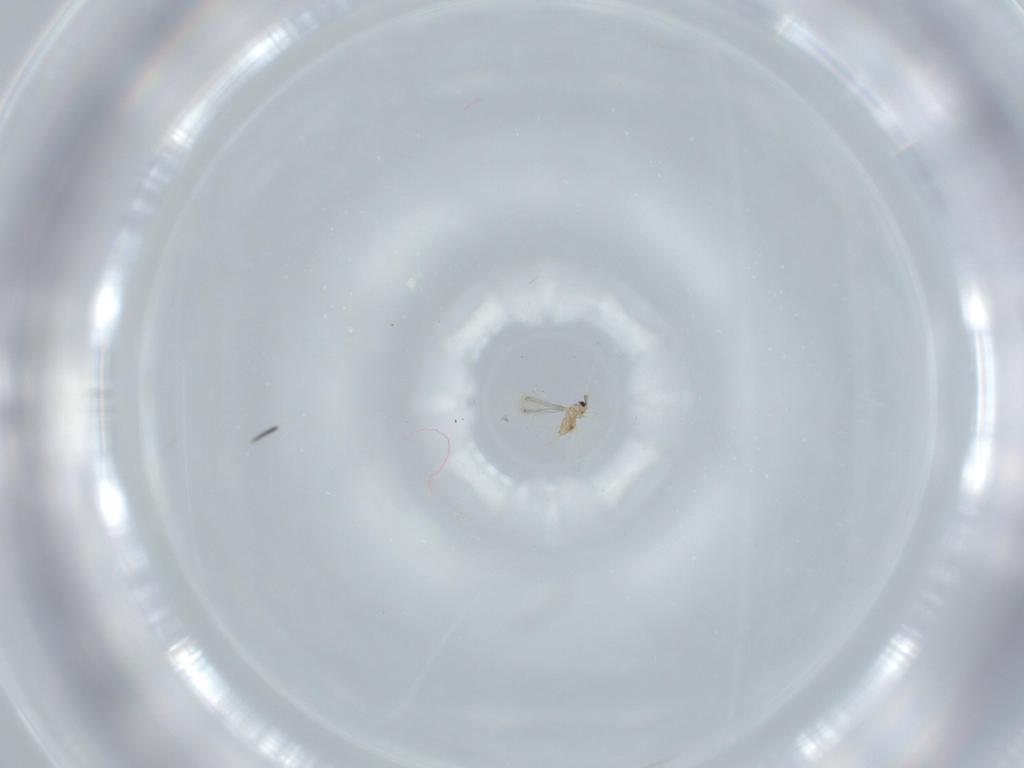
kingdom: Animalia
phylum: Arthropoda
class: Insecta
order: Hymenoptera
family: Mymaridae
